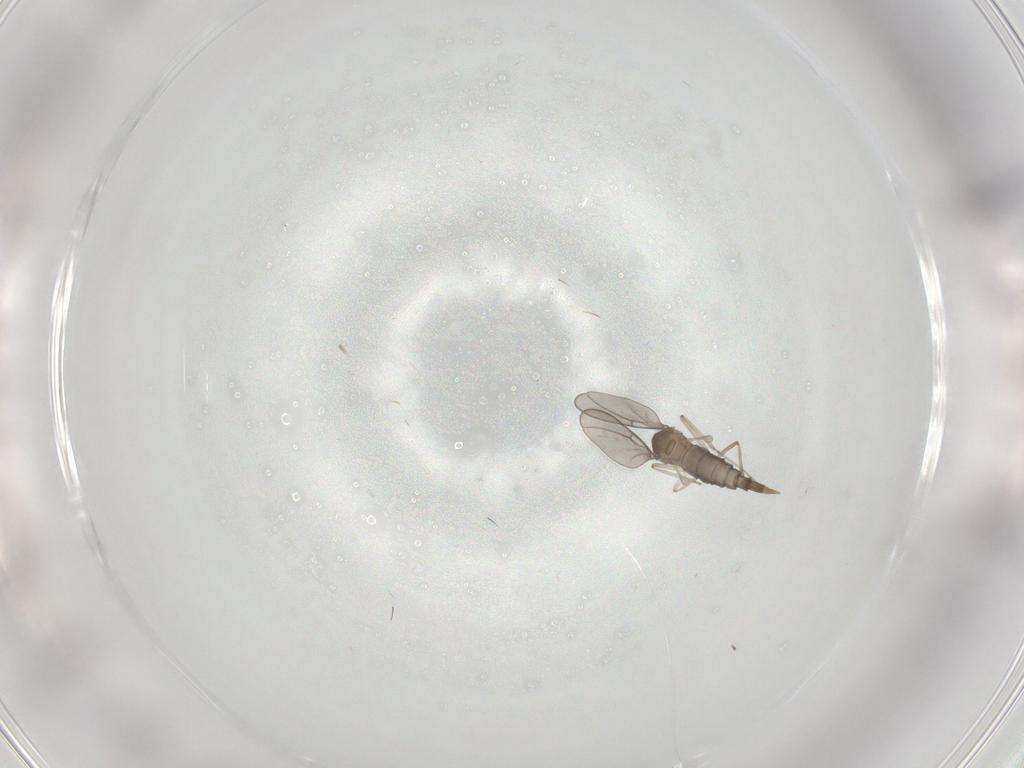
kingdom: Animalia
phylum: Arthropoda
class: Insecta
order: Diptera
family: Cecidomyiidae
